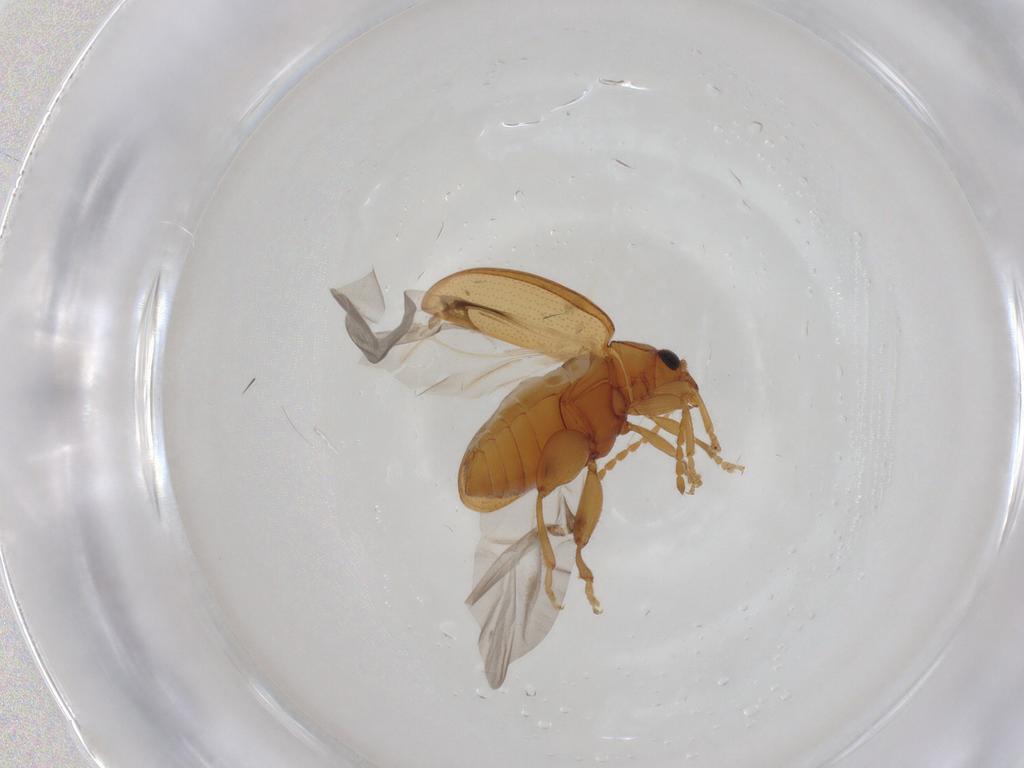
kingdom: Animalia
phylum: Arthropoda
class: Insecta
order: Coleoptera
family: Chrysomelidae
